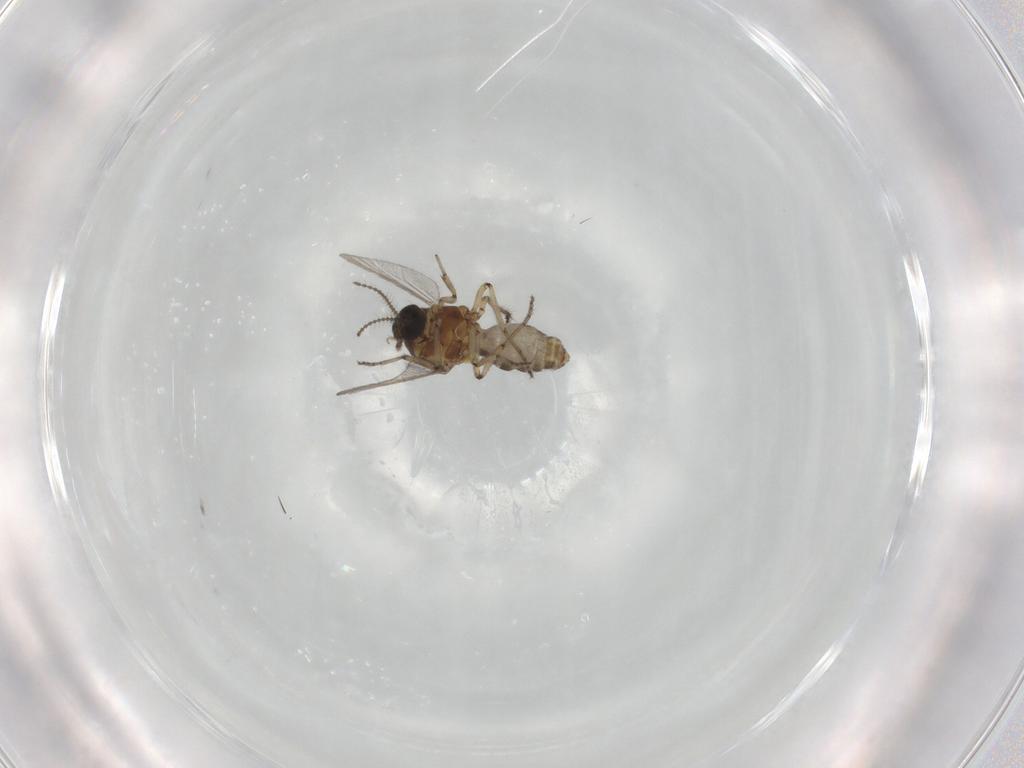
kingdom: Animalia
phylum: Arthropoda
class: Insecta
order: Diptera
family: Ceratopogonidae
